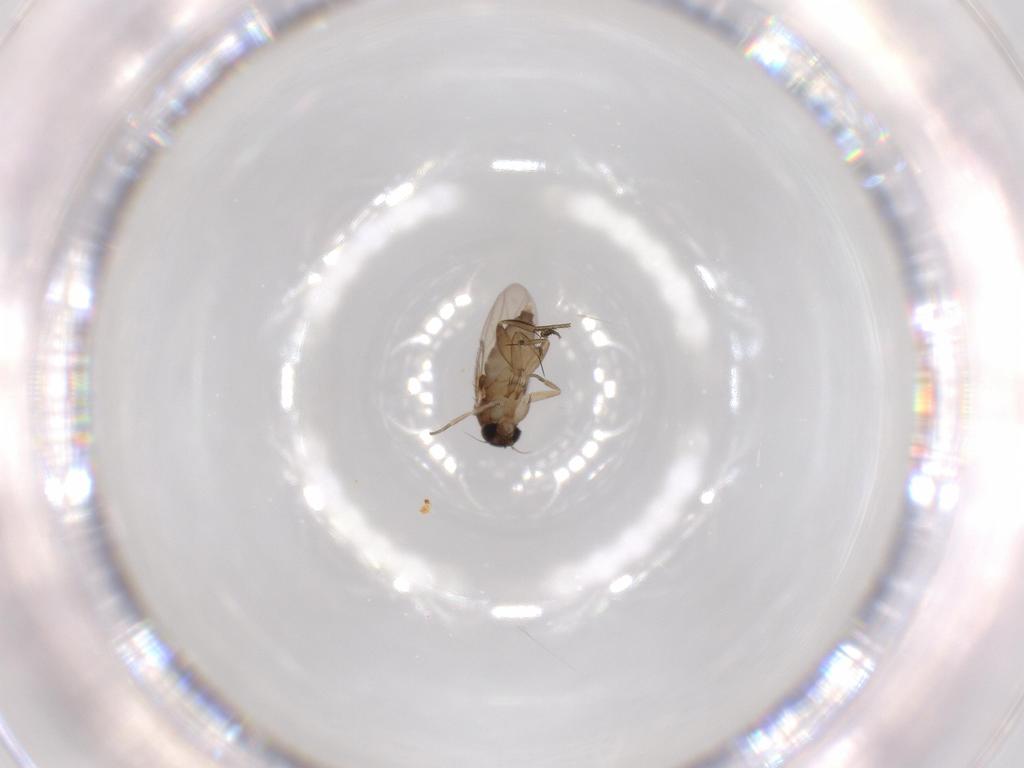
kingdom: Animalia
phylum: Arthropoda
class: Insecta
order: Diptera
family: Phoridae
